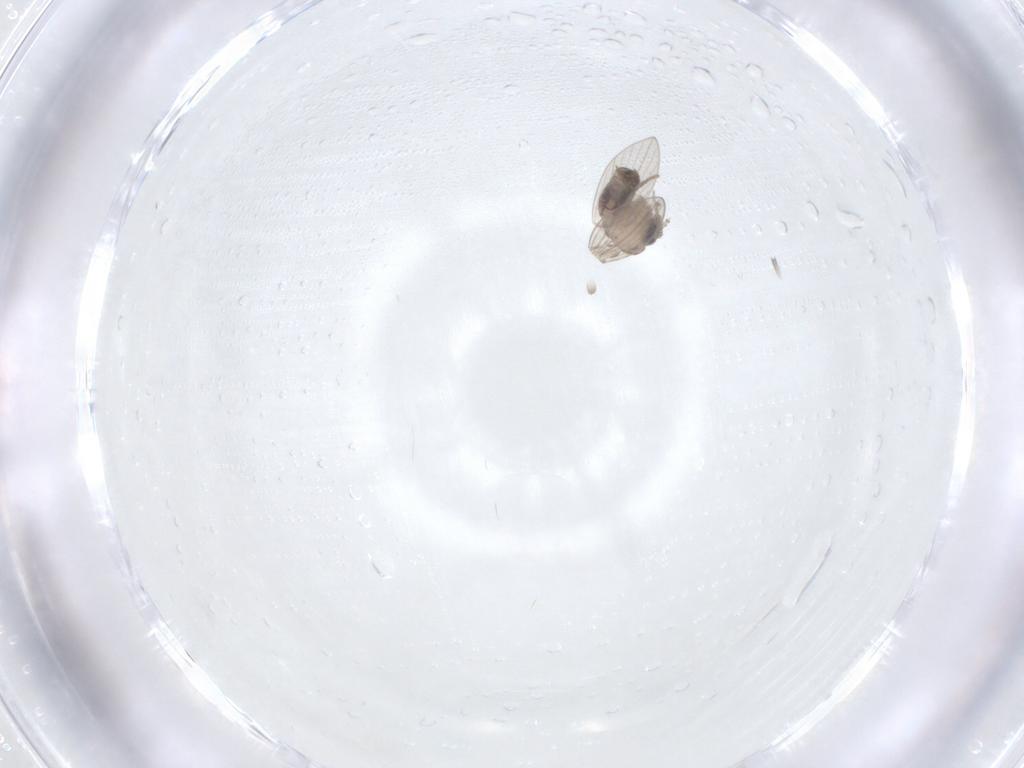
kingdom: Animalia
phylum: Arthropoda
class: Insecta
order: Diptera
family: Psychodidae
